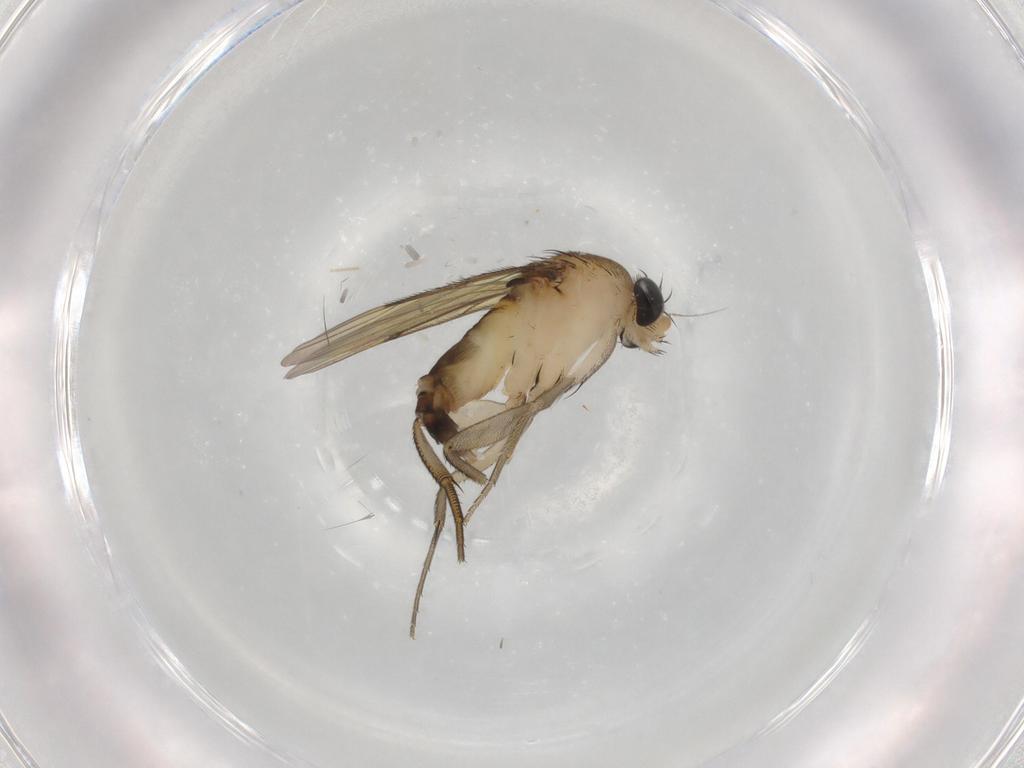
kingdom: Animalia
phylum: Arthropoda
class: Insecta
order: Diptera
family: Phoridae
